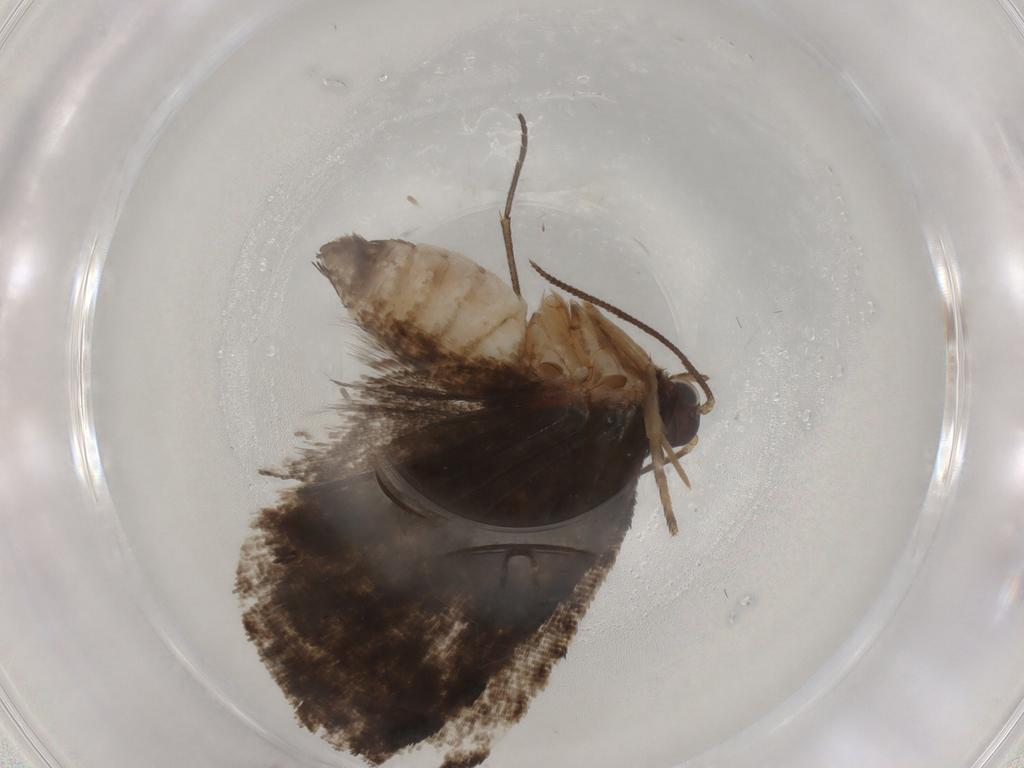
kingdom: Animalia
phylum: Arthropoda
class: Insecta
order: Lepidoptera
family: Tortricidae
